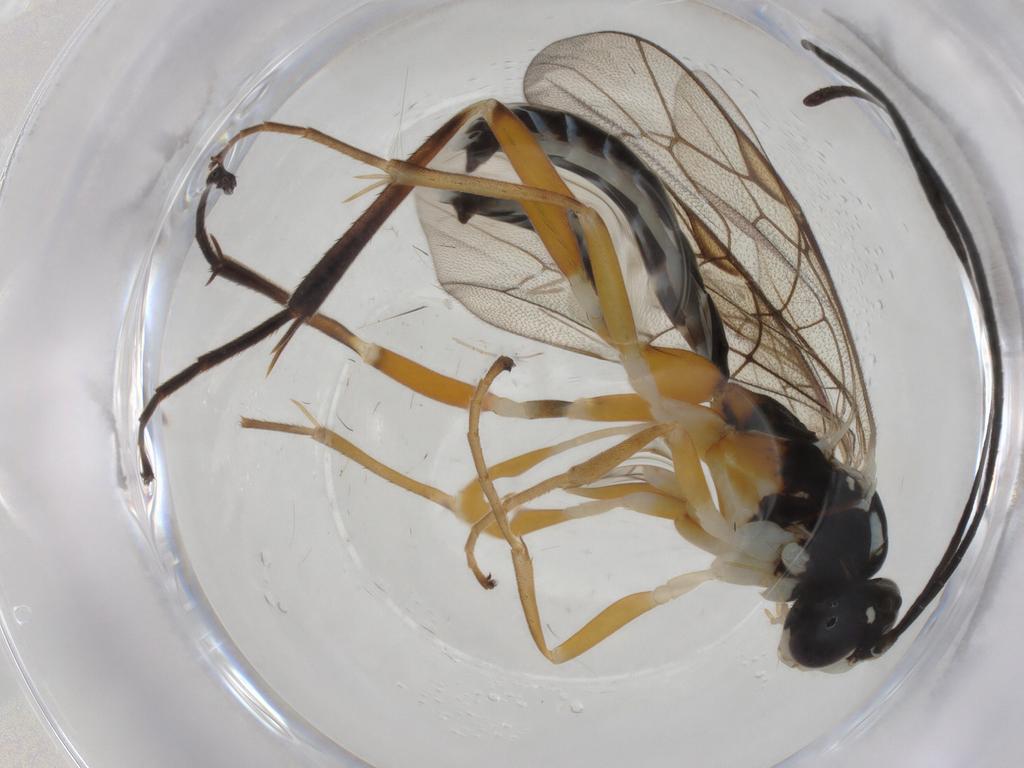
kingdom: Animalia
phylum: Arthropoda
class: Insecta
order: Hymenoptera
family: Ichneumonidae
